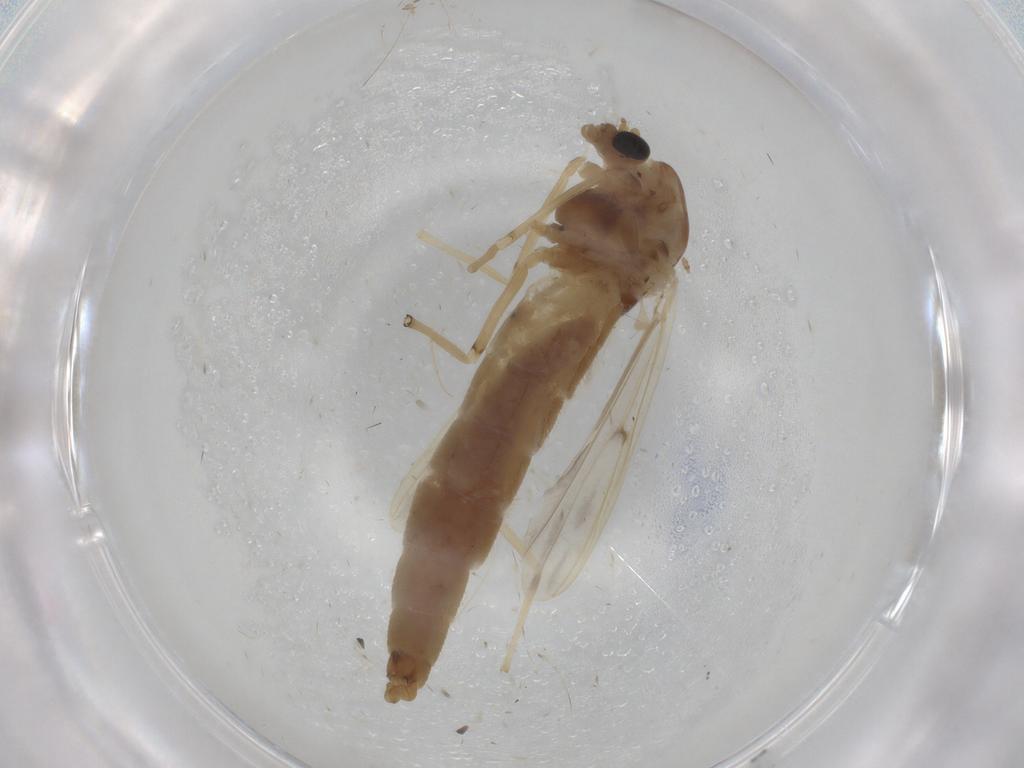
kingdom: Animalia
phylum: Arthropoda
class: Insecta
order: Diptera
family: Chironomidae
